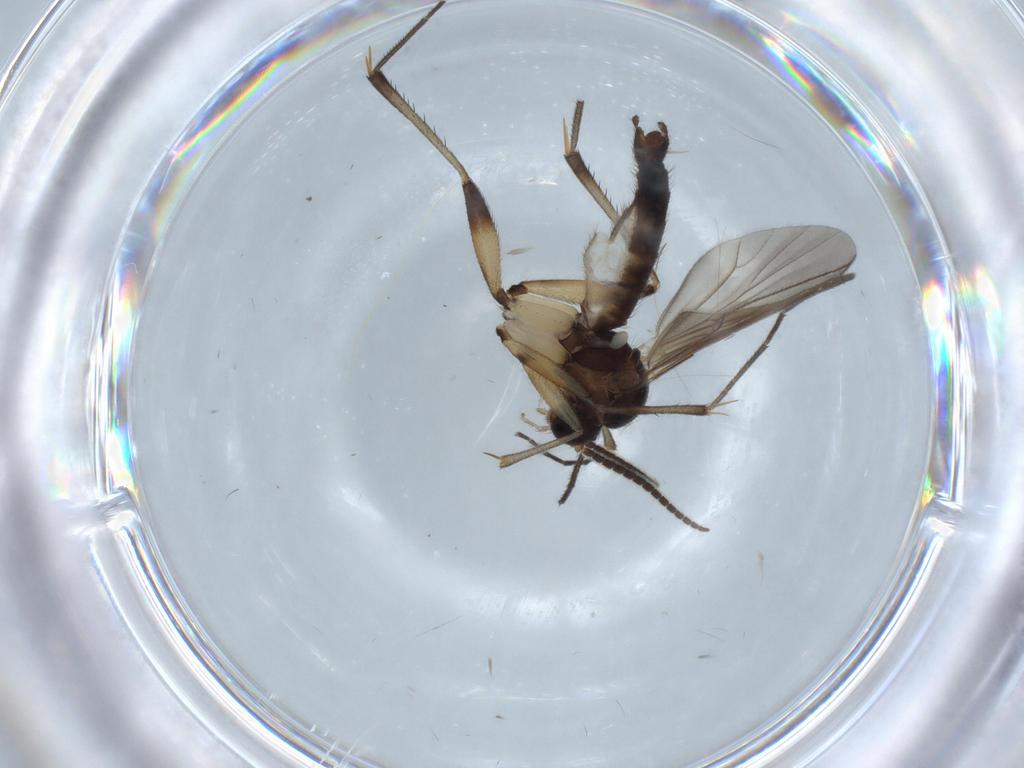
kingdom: Animalia
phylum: Arthropoda
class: Insecta
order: Diptera
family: Mycetophilidae
